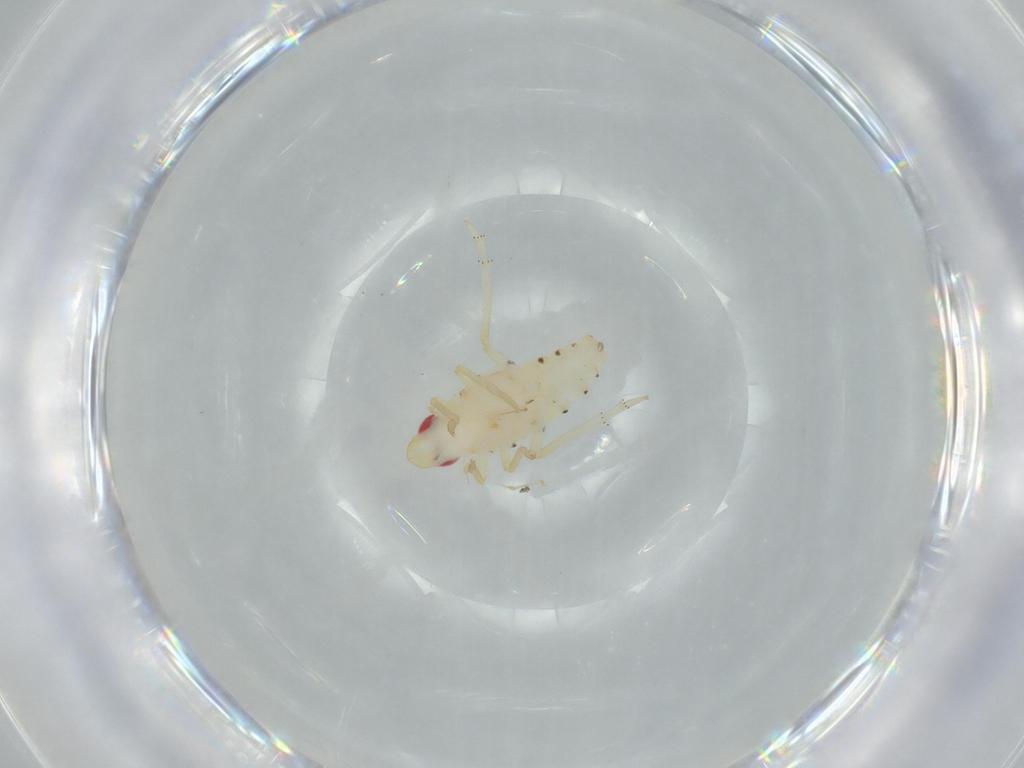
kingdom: Animalia
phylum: Arthropoda
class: Insecta
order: Hemiptera
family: Tropiduchidae
